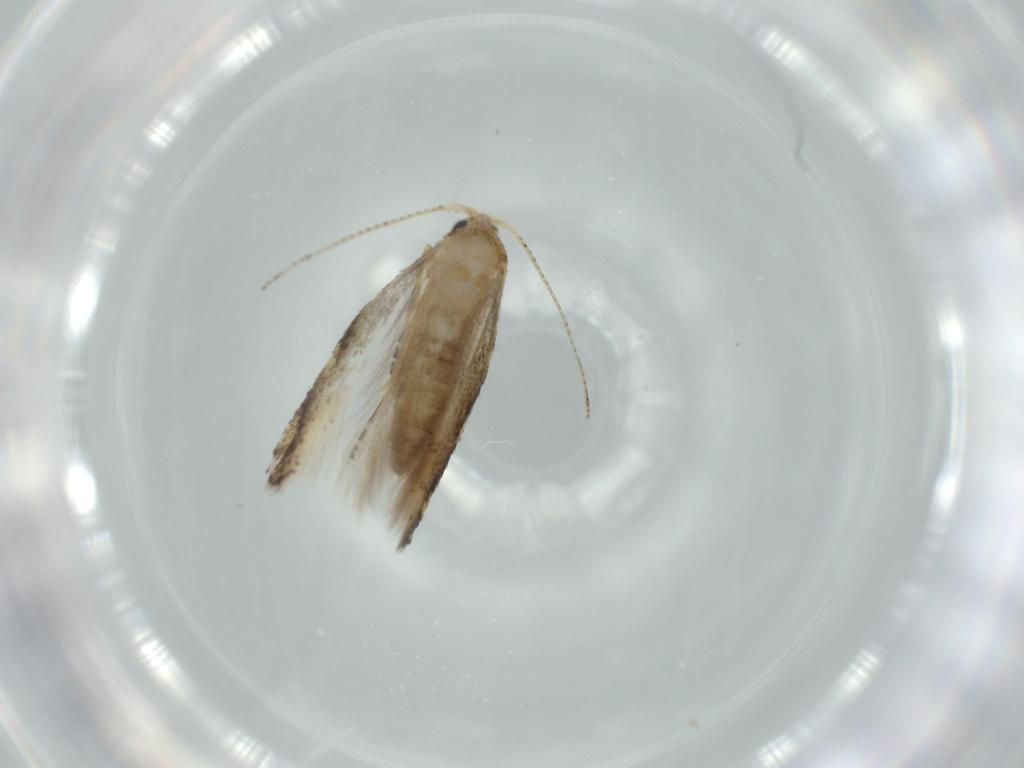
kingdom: Animalia
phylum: Arthropoda
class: Insecta
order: Lepidoptera
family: Bucculatricidae
